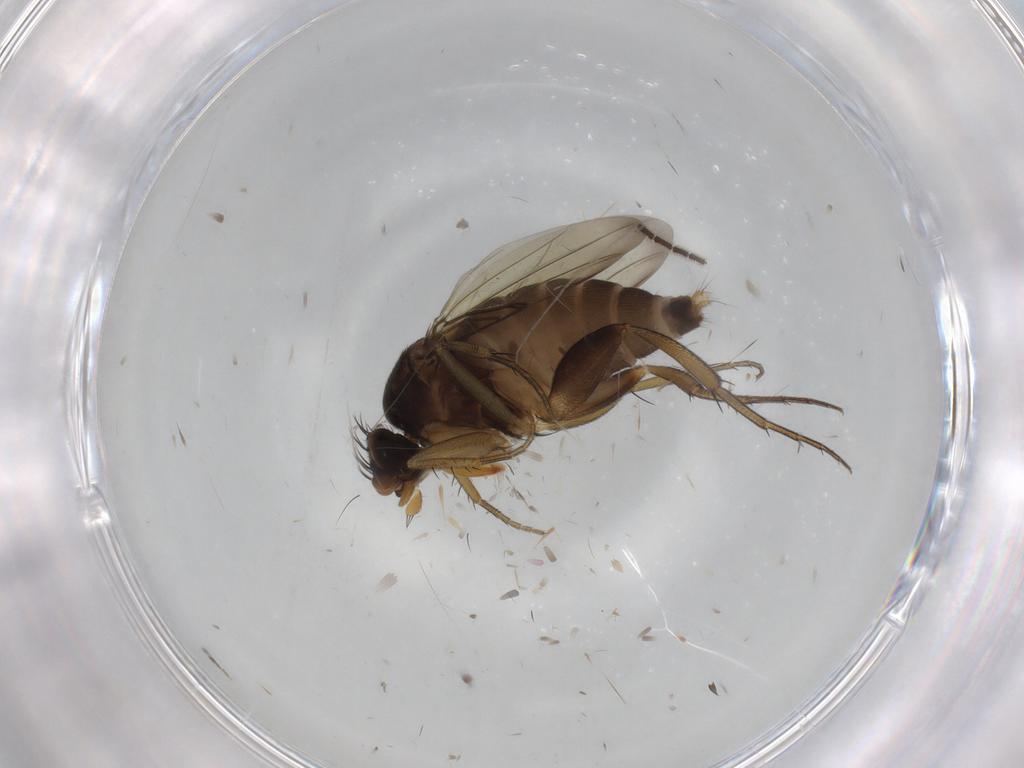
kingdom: Animalia
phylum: Arthropoda
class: Insecta
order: Diptera
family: Phoridae
